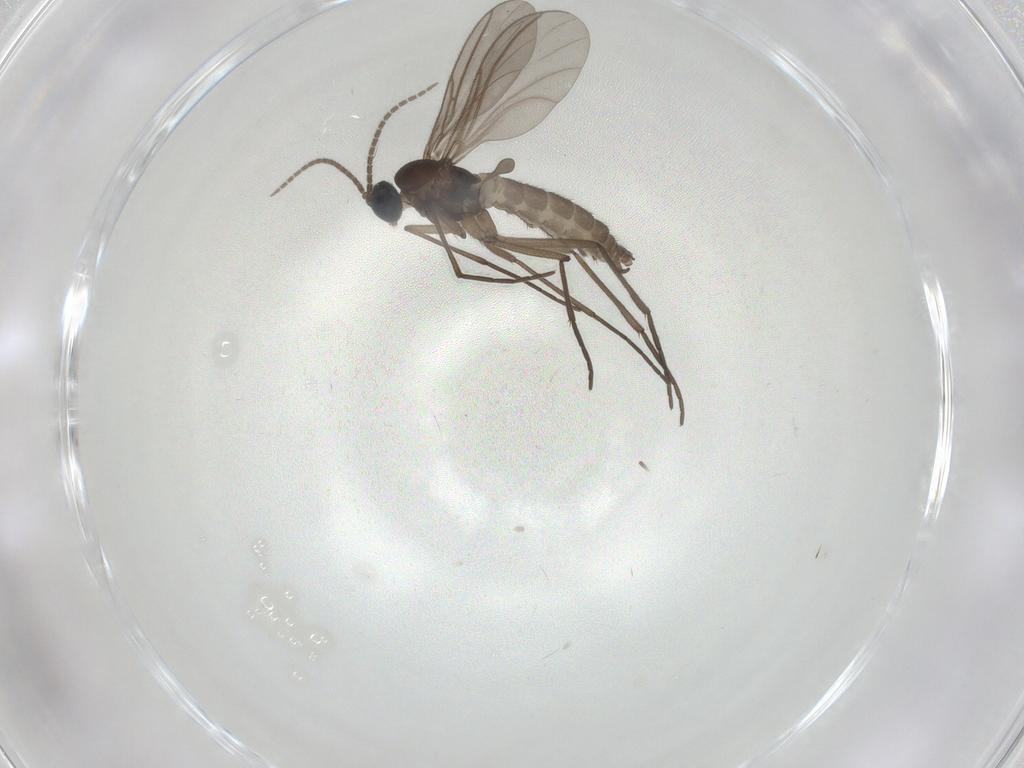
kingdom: Animalia
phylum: Arthropoda
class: Insecta
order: Diptera
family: Sciaridae
